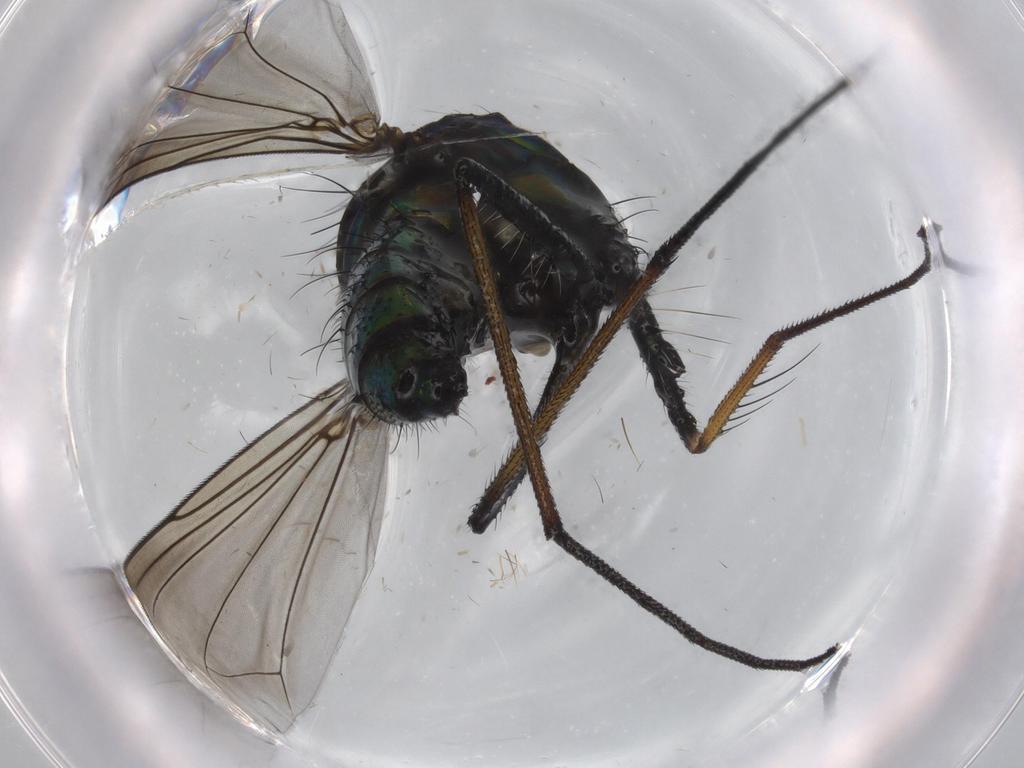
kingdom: Animalia
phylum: Arthropoda
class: Insecta
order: Diptera
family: Dolichopodidae
